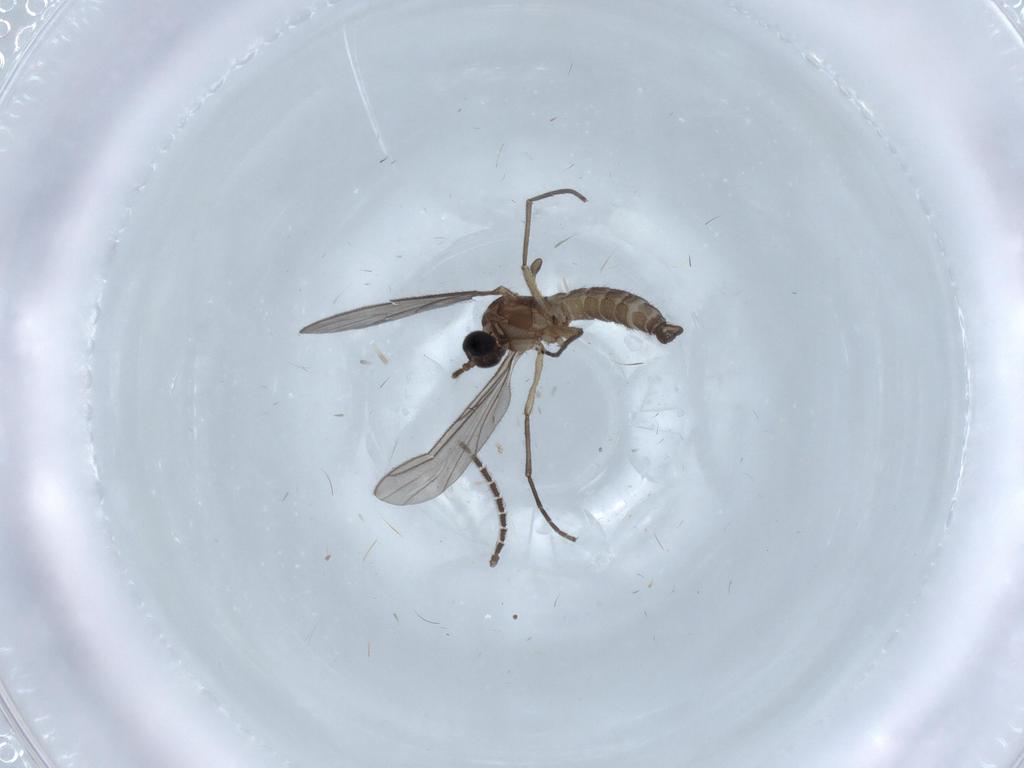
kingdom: Animalia
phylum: Arthropoda
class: Insecta
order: Diptera
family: Sciaridae
